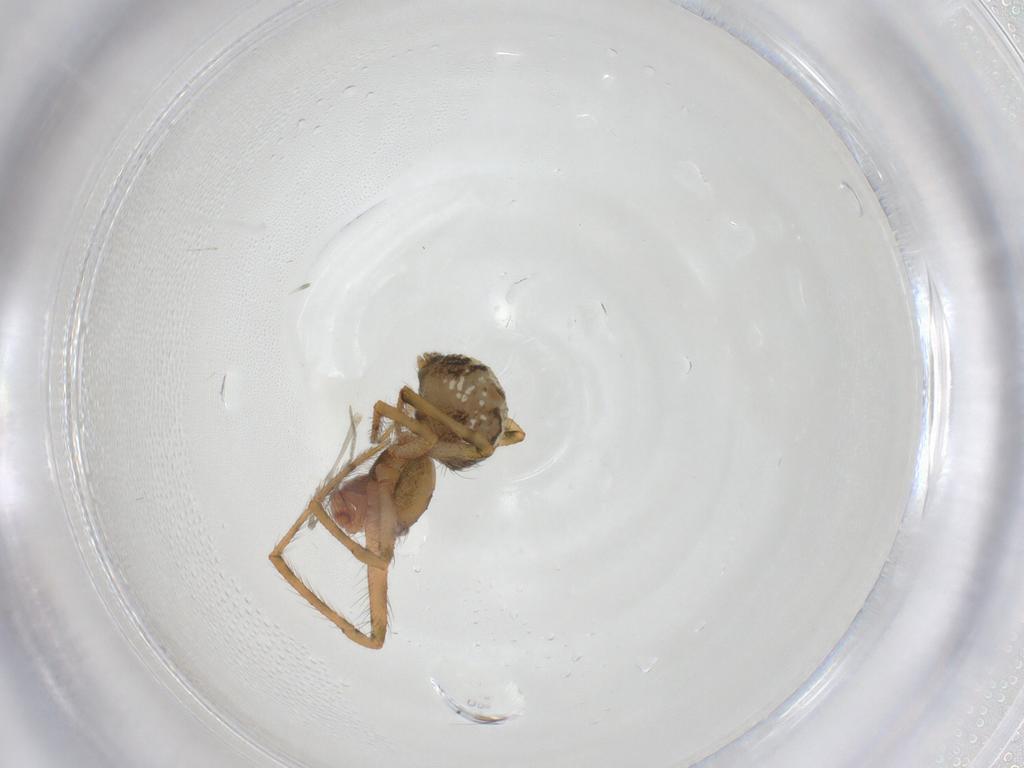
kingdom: Animalia
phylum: Arthropoda
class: Arachnida
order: Araneae
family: Theridiidae
